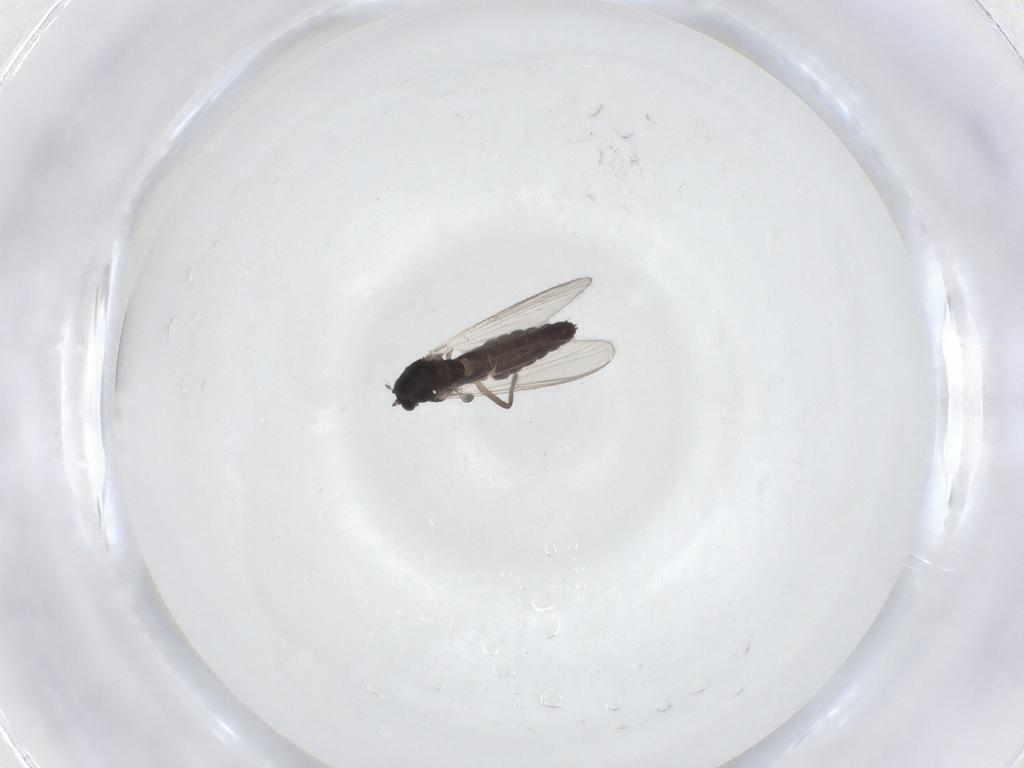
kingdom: Animalia
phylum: Arthropoda
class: Insecta
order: Diptera
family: Chironomidae
